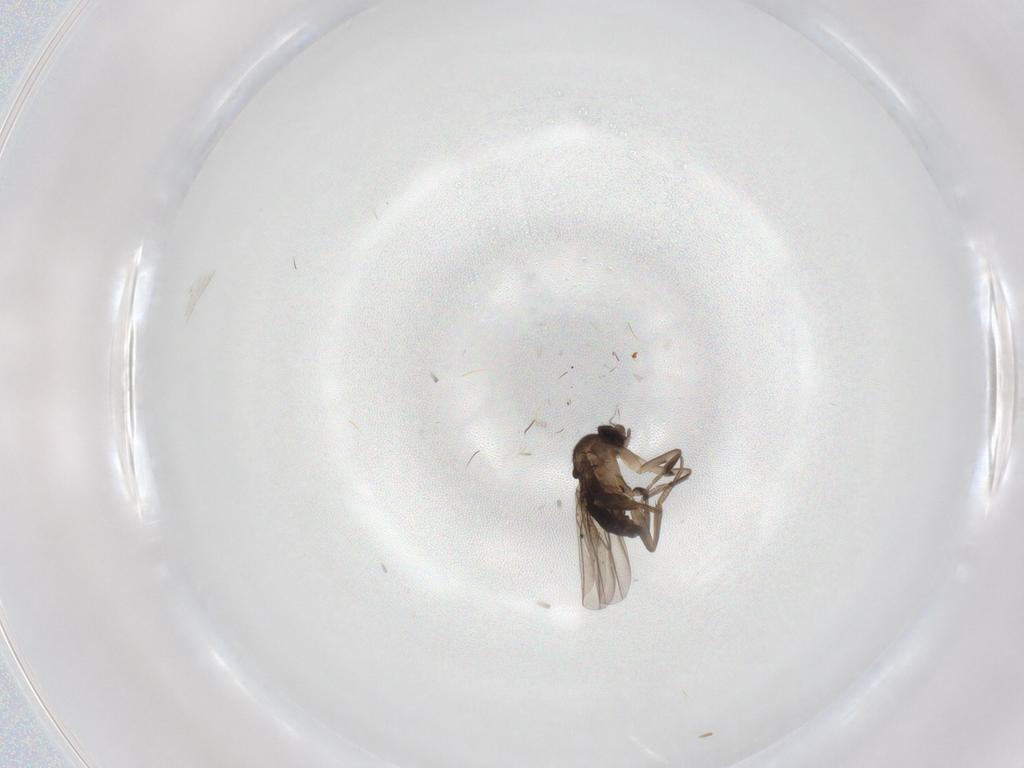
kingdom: Animalia
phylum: Arthropoda
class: Insecta
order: Diptera
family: Phoridae
